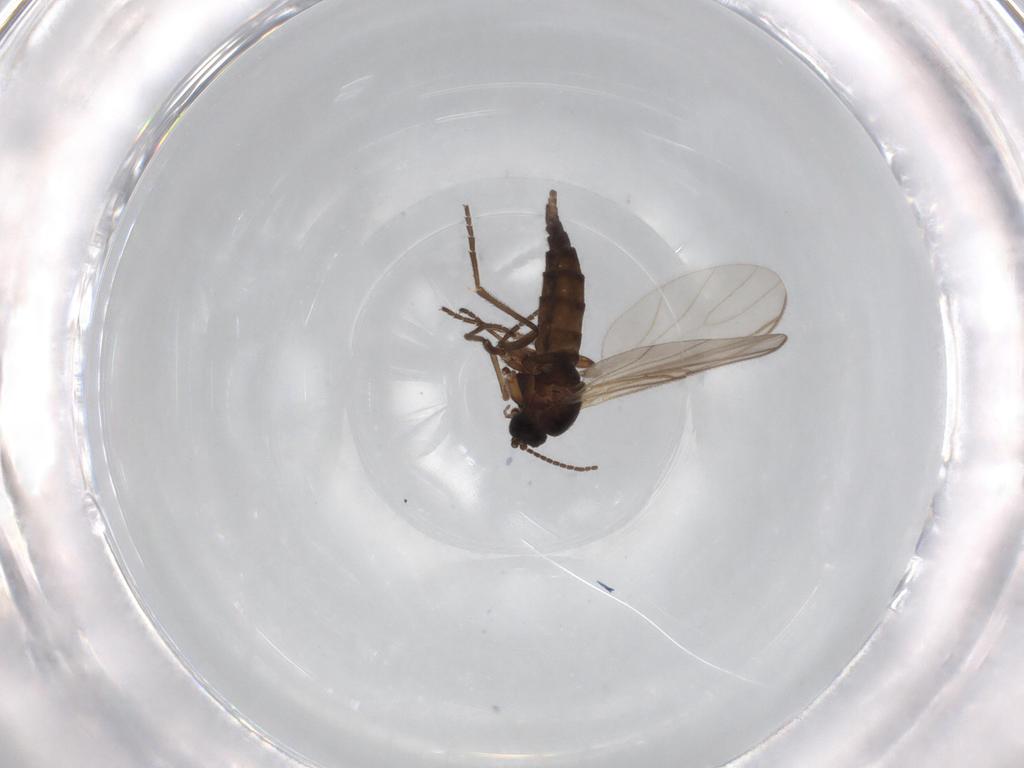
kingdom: Animalia
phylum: Arthropoda
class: Insecta
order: Diptera
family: Sciaridae
